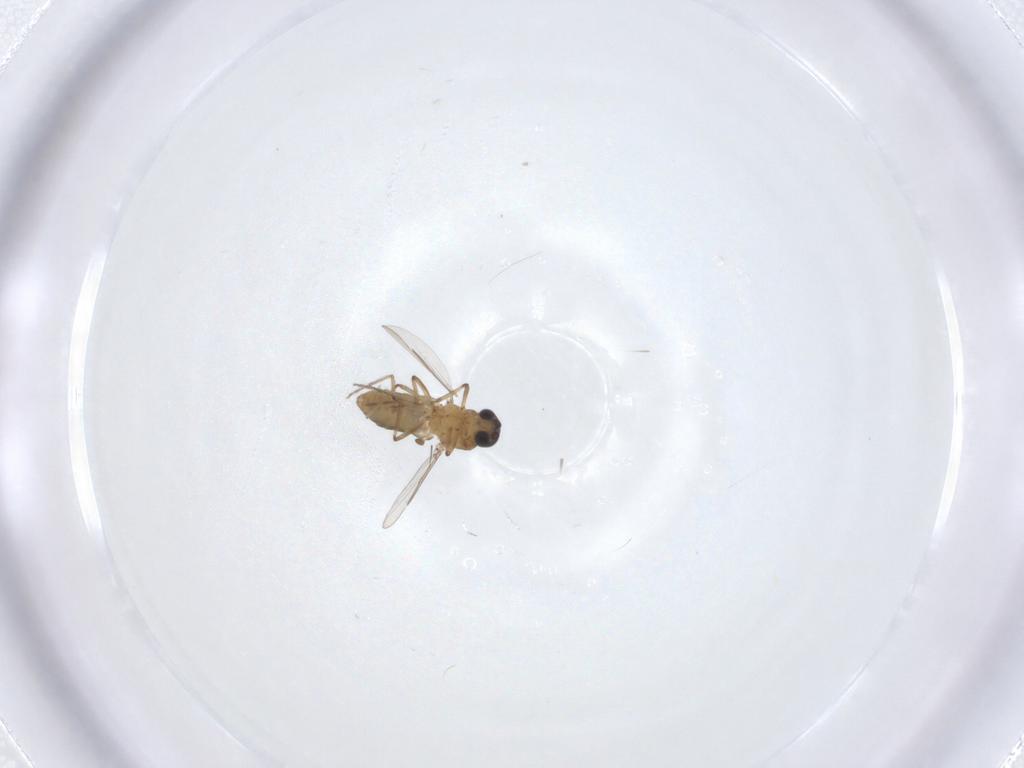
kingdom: Animalia
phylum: Arthropoda
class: Insecta
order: Diptera
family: Ceratopogonidae
